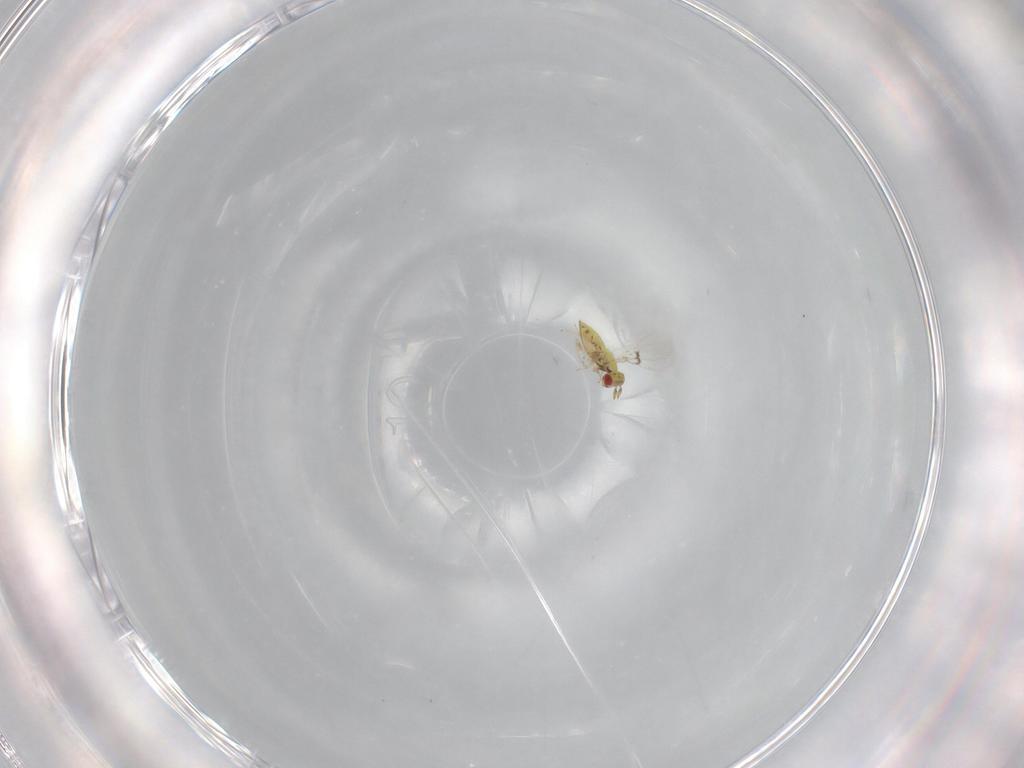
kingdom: Animalia
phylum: Arthropoda
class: Insecta
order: Hymenoptera
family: Trichogrammatidae
